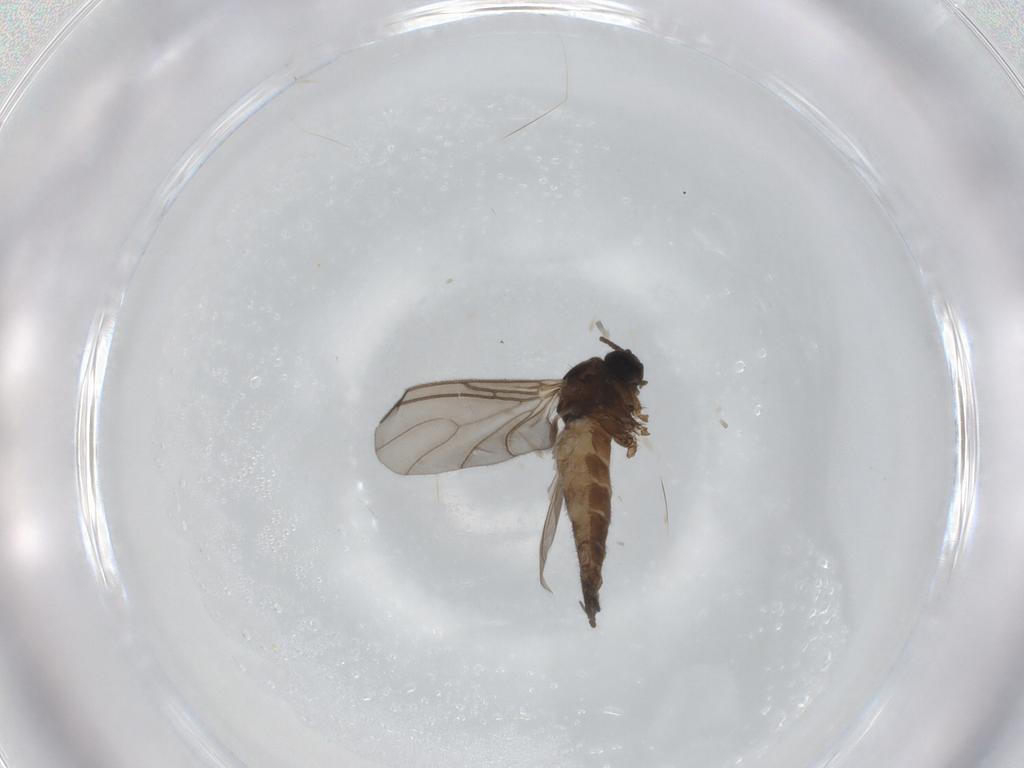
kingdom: Animalia
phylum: Arthropoda
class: Insecta
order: Diptera
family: Sciaridae
